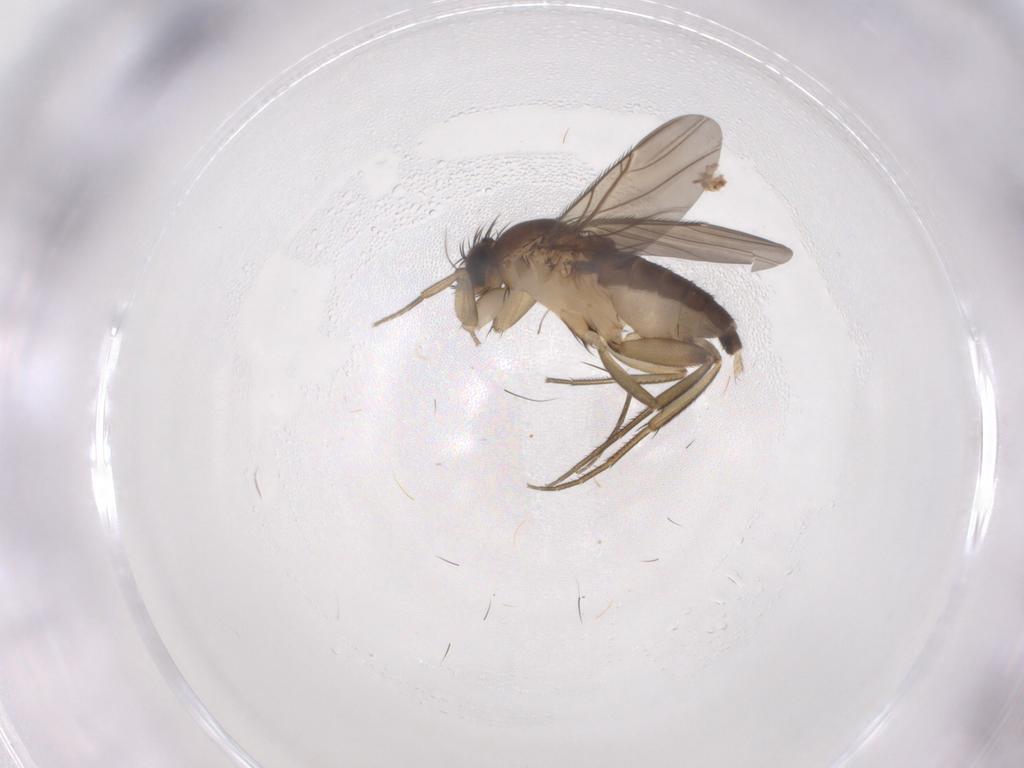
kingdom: Animalia
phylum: Arthropoda
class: Insecta
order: Diptera
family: Phoridae
